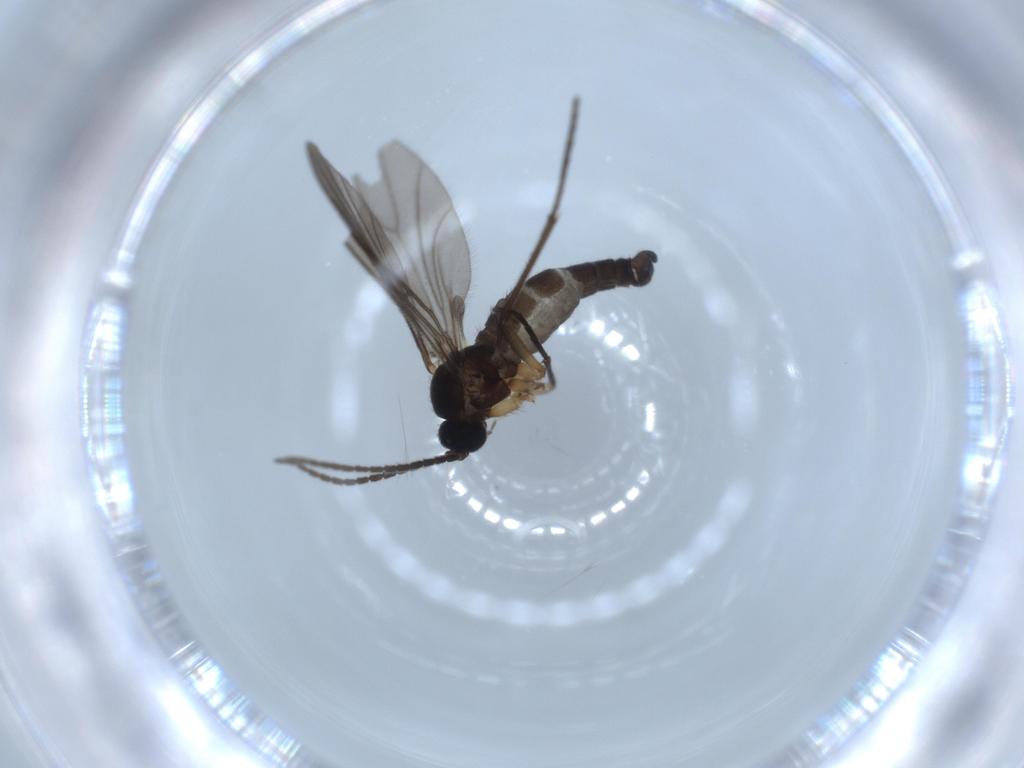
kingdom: Animalia
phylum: Arthropoda
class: Insecta
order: Diptera
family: Sciaridae
